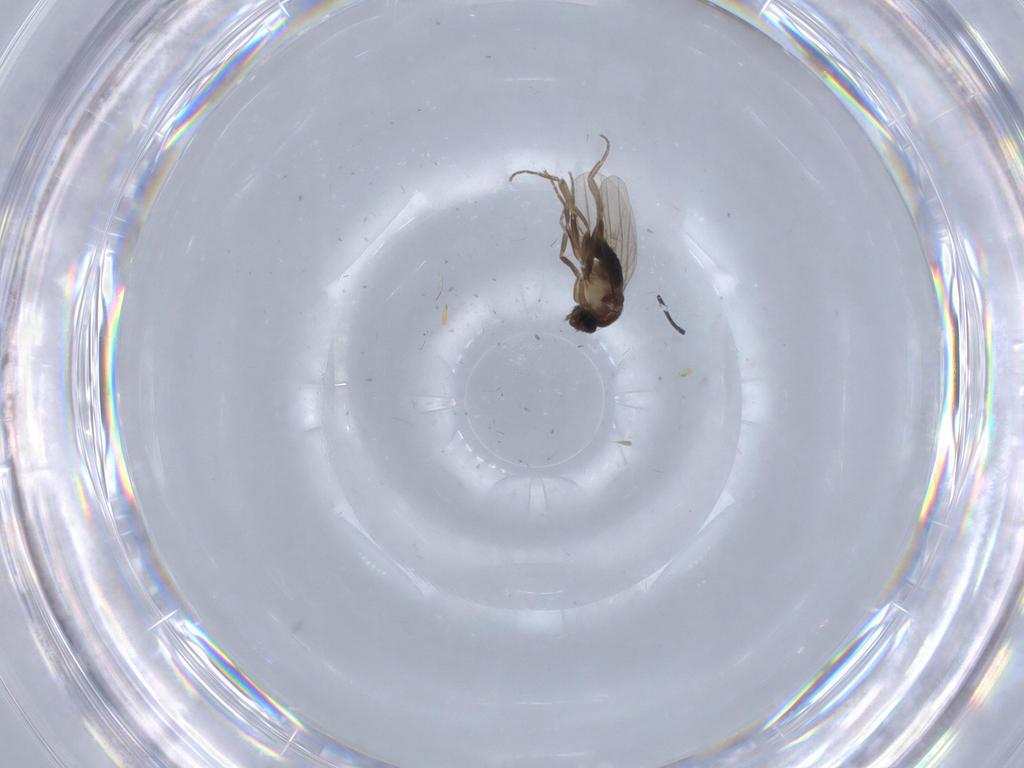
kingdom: Animalia
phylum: Arthropoda
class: Insecta
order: Diptera
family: Phoridae
